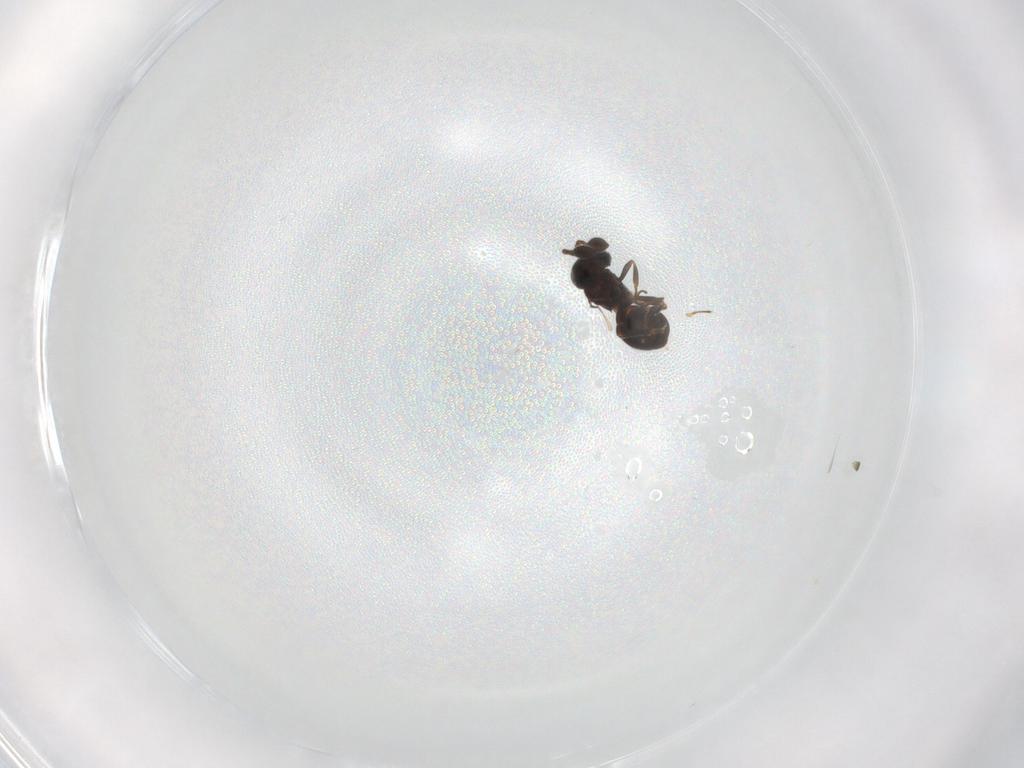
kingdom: Animalia
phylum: Arthropoda
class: Insecta
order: Hymenoptera
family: Scelionidae
